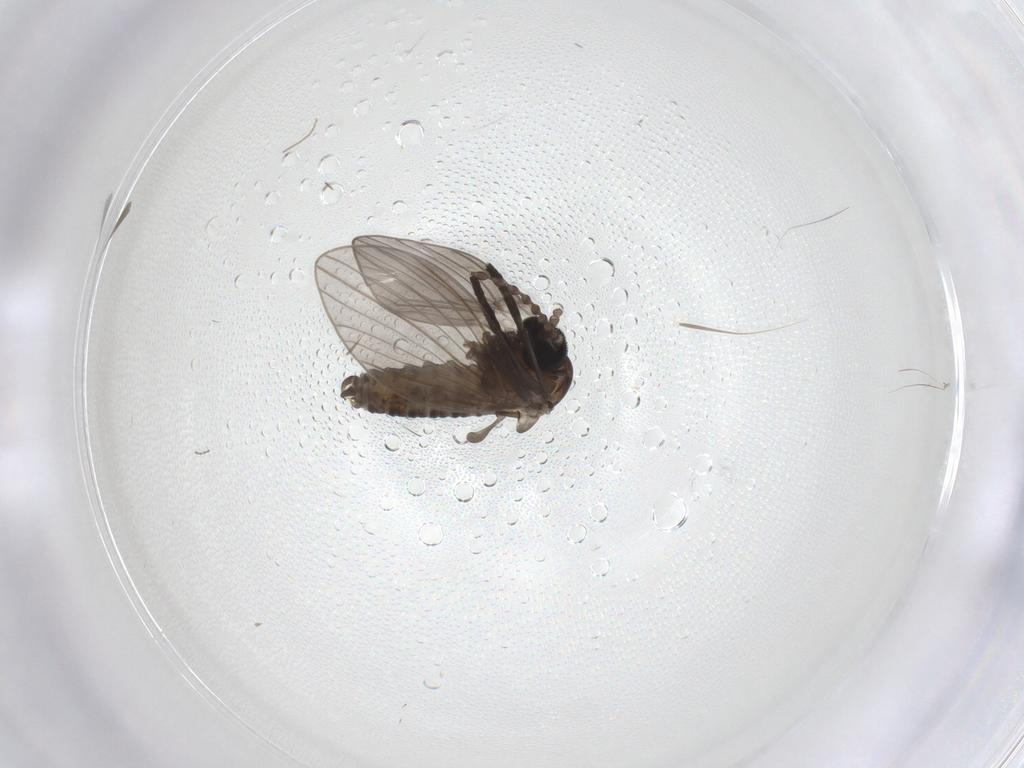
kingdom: Animalia
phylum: Arthropoda
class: Insecta
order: Diptera
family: Psychodidae
